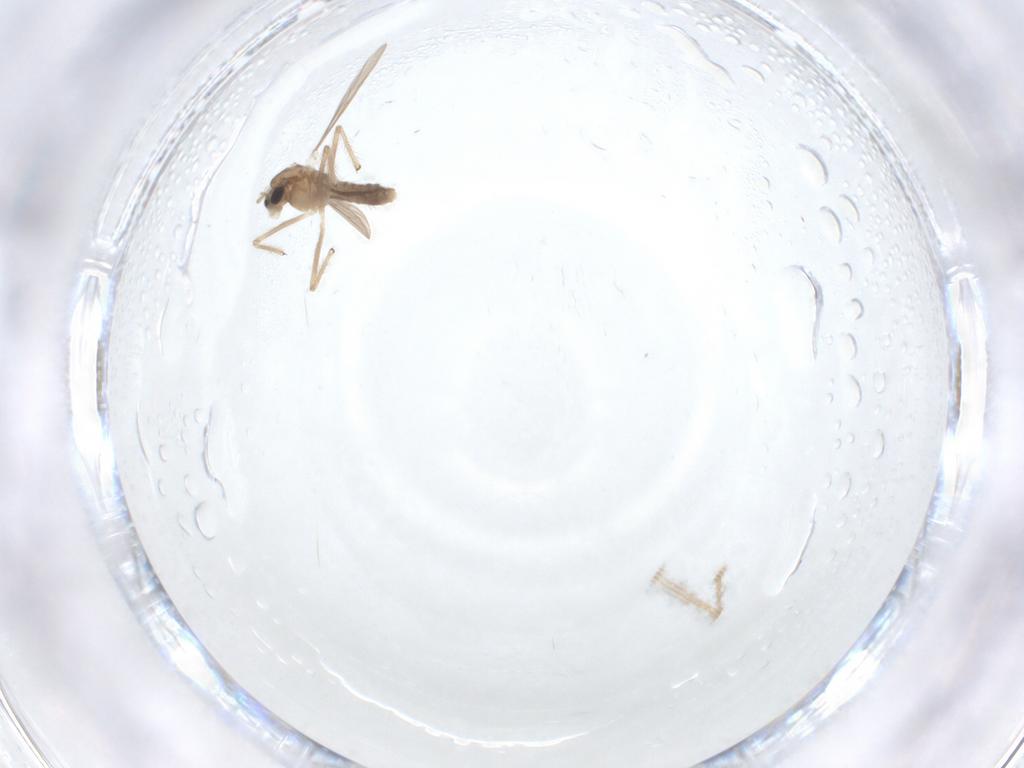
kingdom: Animalia
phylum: Arthropoda
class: Insecta
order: Diptera
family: Chironomidae
